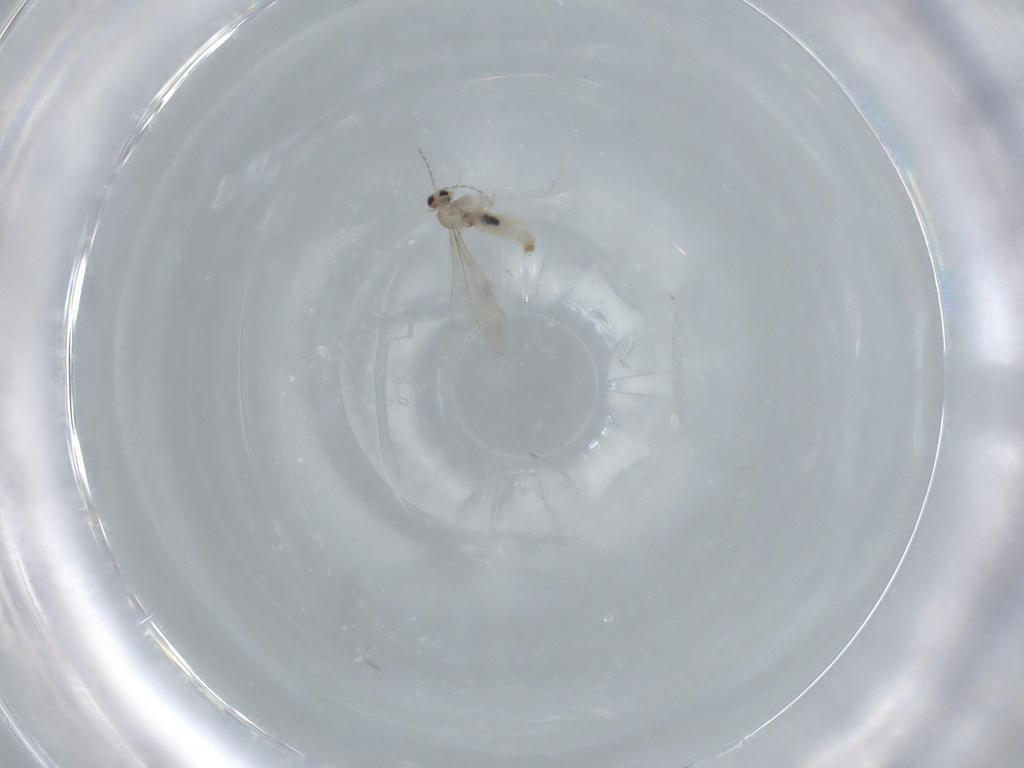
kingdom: Animalia
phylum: Arthropoda
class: Insecta
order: Diptera
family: Cecidomyiidae
